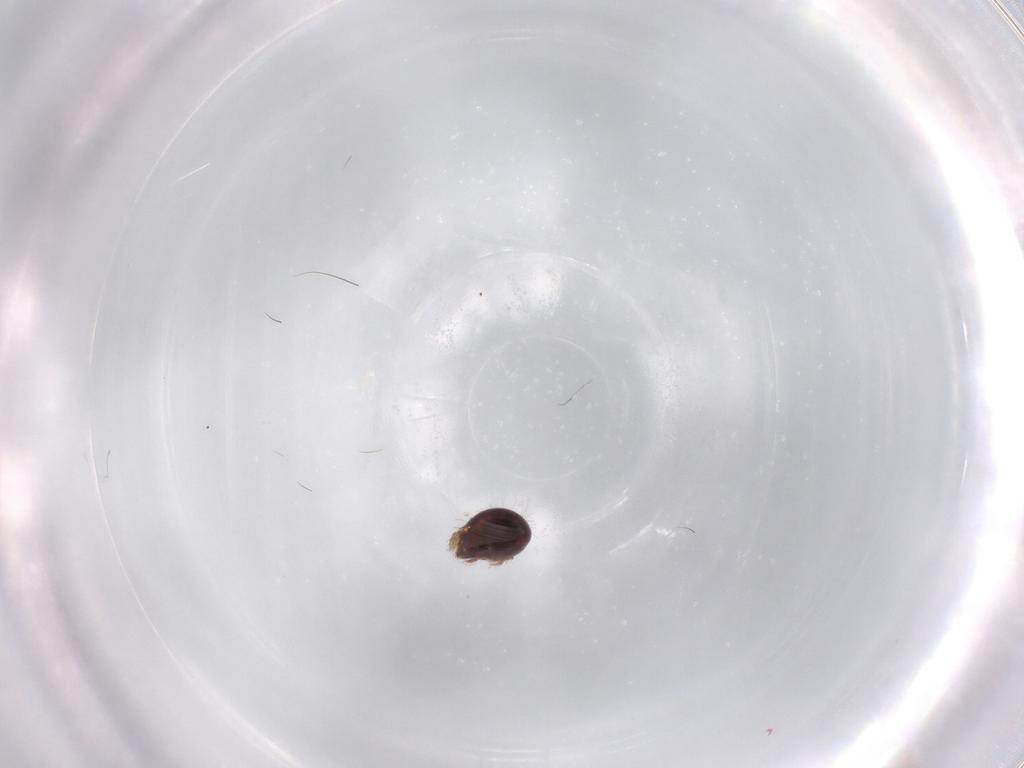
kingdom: Animalia
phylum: Arthropoda
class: Arachnida
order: Sarcoptiformes
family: Humerobatidae
